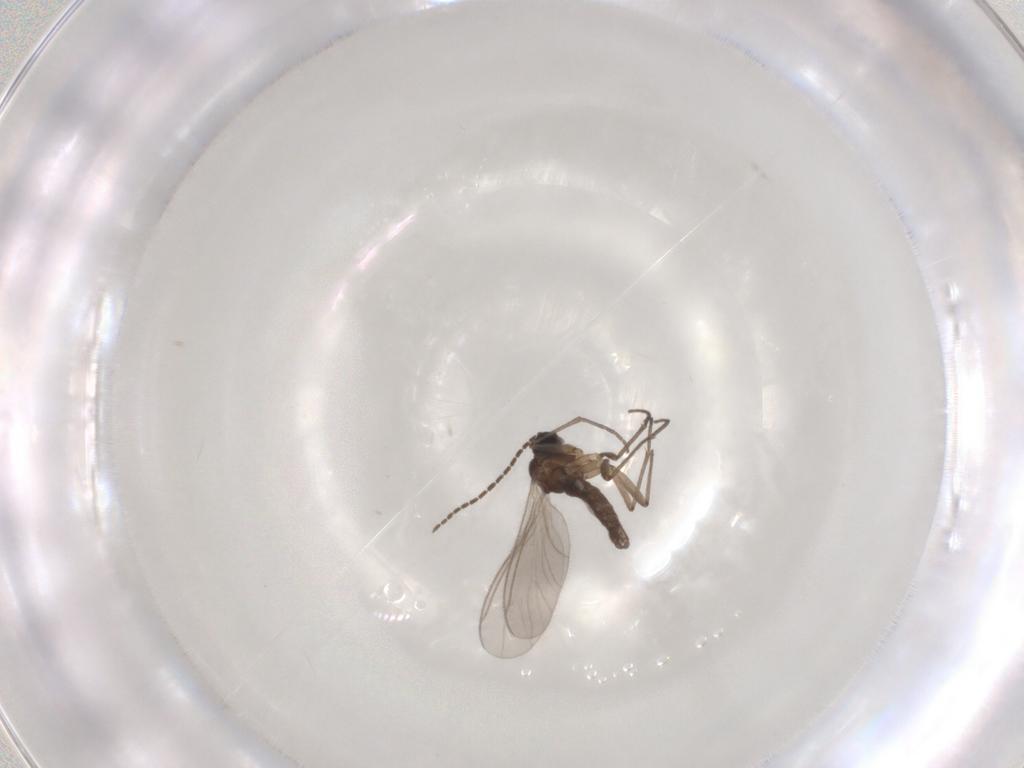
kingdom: Animalia
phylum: Arthropoda
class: Insecta
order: Diptera
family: Sciaridae
